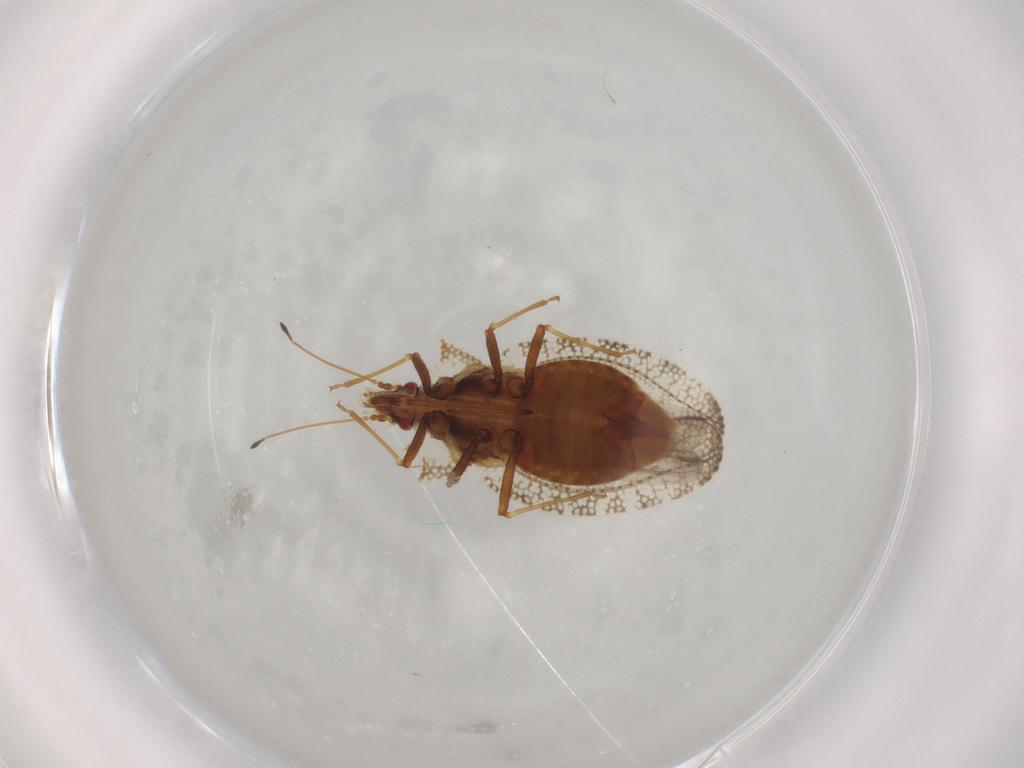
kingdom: Animalia
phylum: Arthropoda
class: Insecta
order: Hemiptera
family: Tingidae
